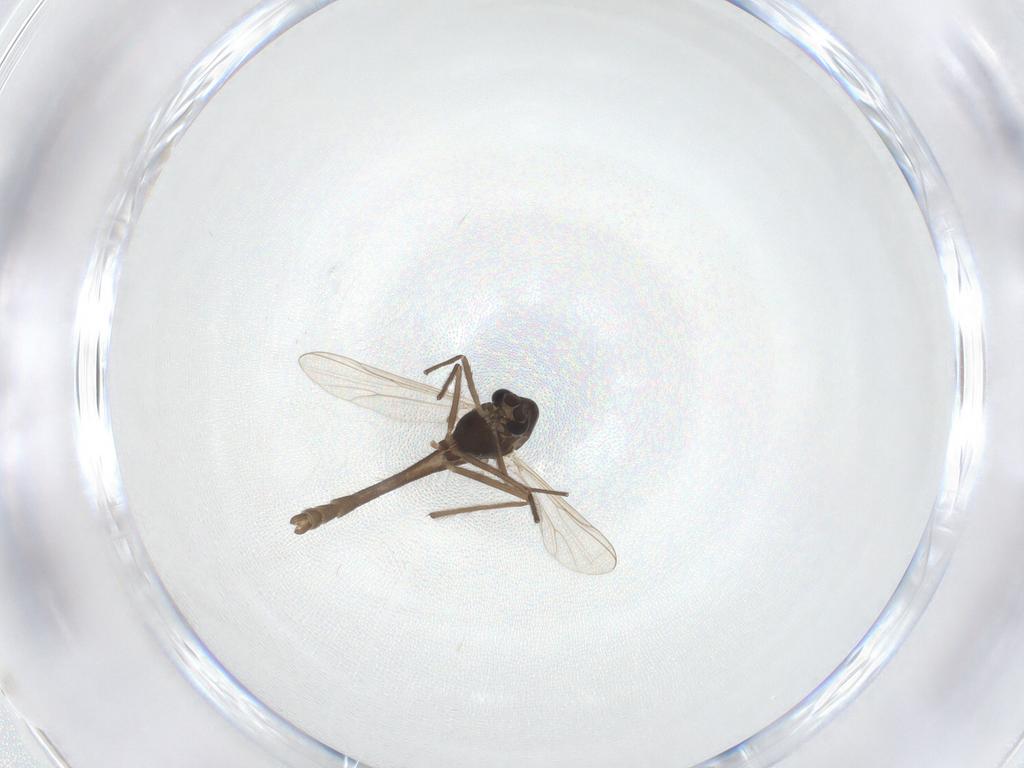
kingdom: Animalia
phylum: Arthropoda
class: Insecta
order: Diptera
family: Chironomidae
